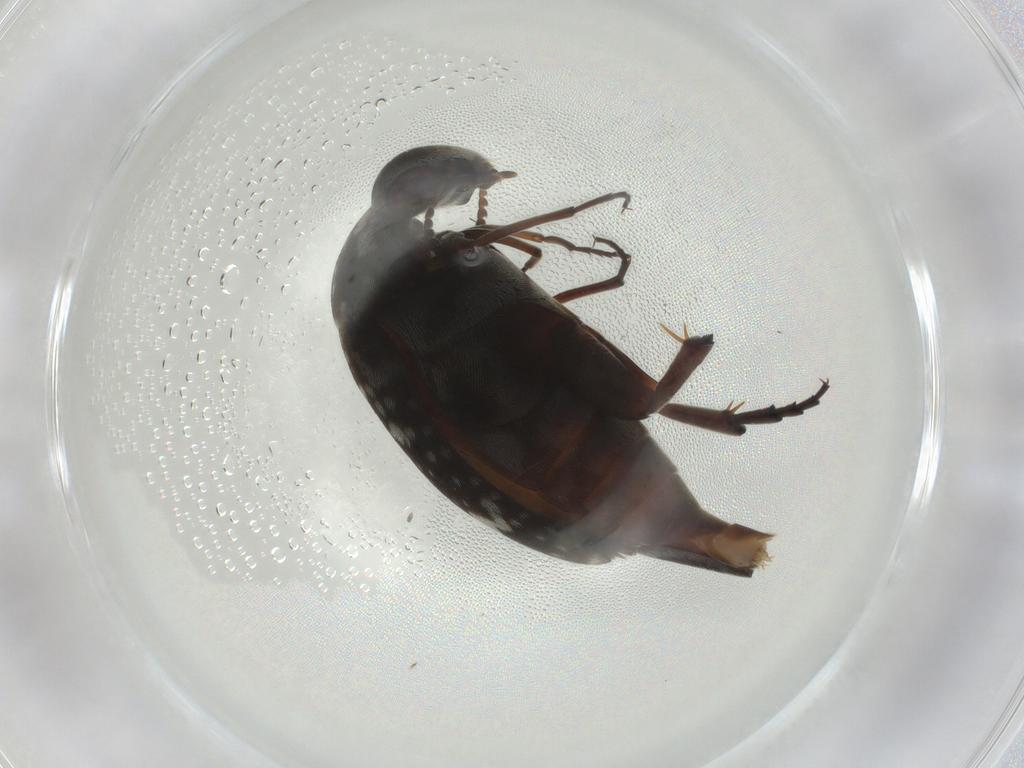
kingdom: Animalia
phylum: Arthropoda
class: Insecta
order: Coleoptera
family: Mordellidae
